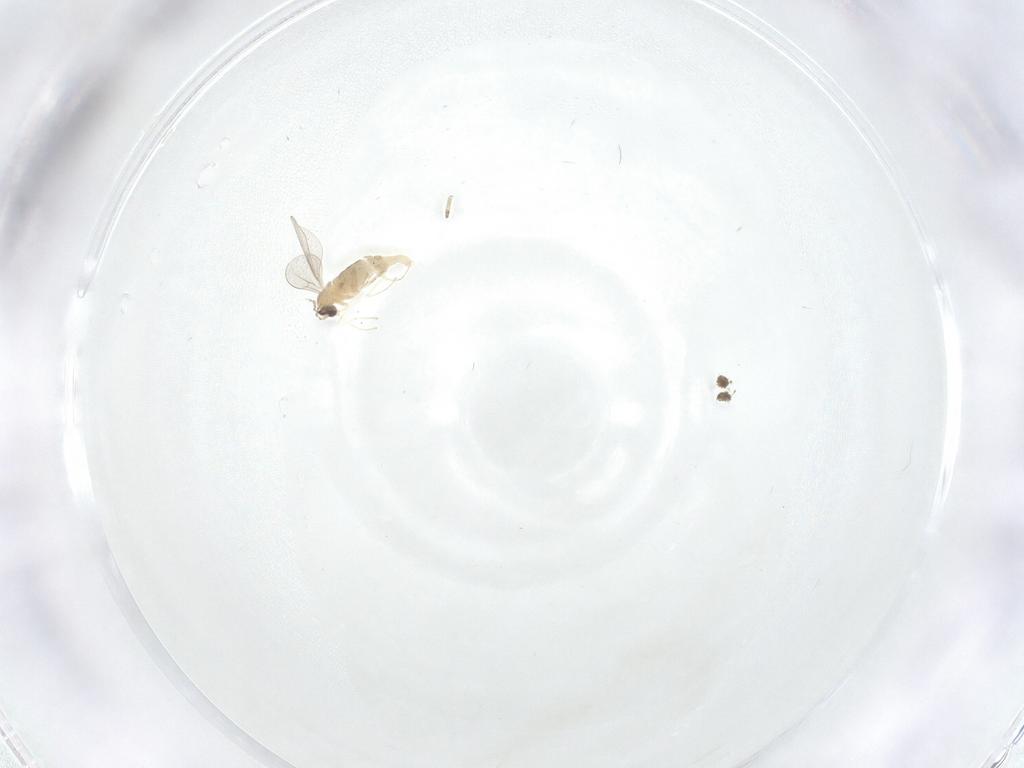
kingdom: Animalia
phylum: Arthropoda
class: Insecta
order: Diptera
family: Cecidomyiidae
